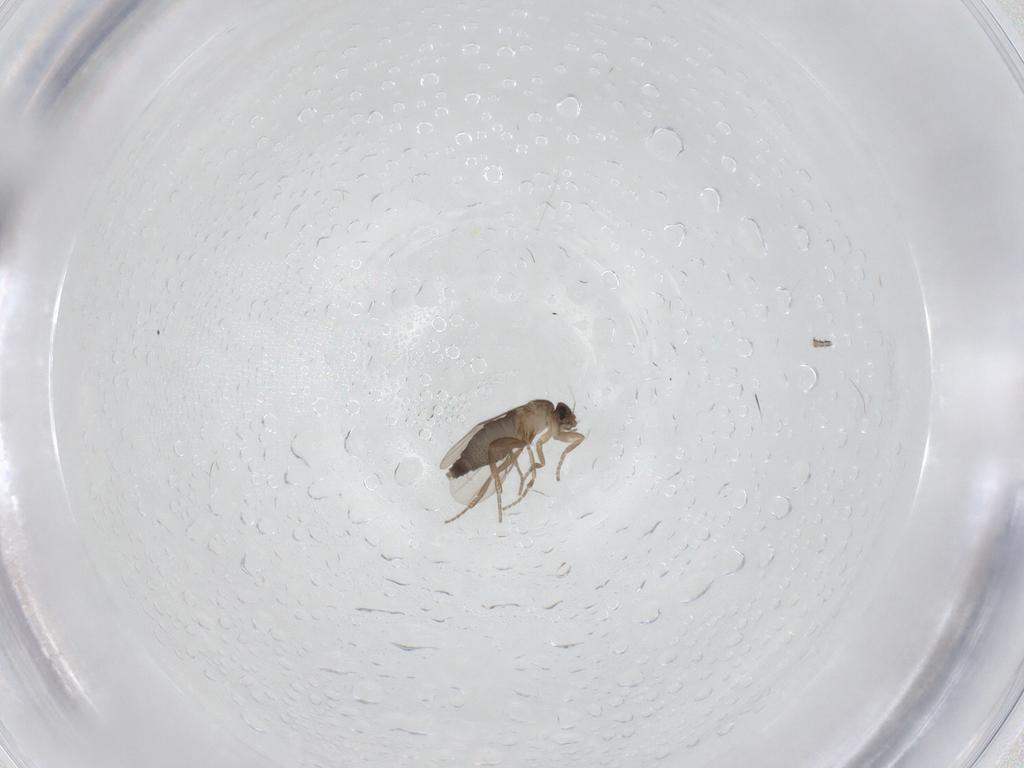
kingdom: Animalia
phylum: Arthropoda
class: Insecta
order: Diptera
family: Phoridae
